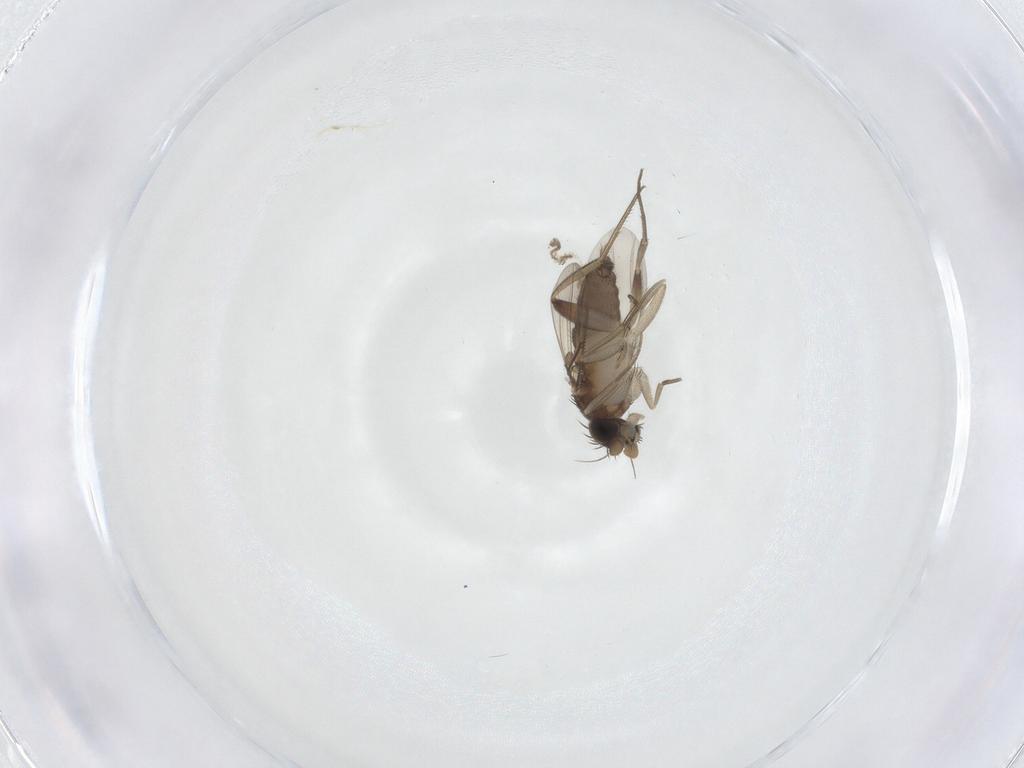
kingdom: Animalia
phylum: Arthropoda
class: Insecta
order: Diptera
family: Phoridae
